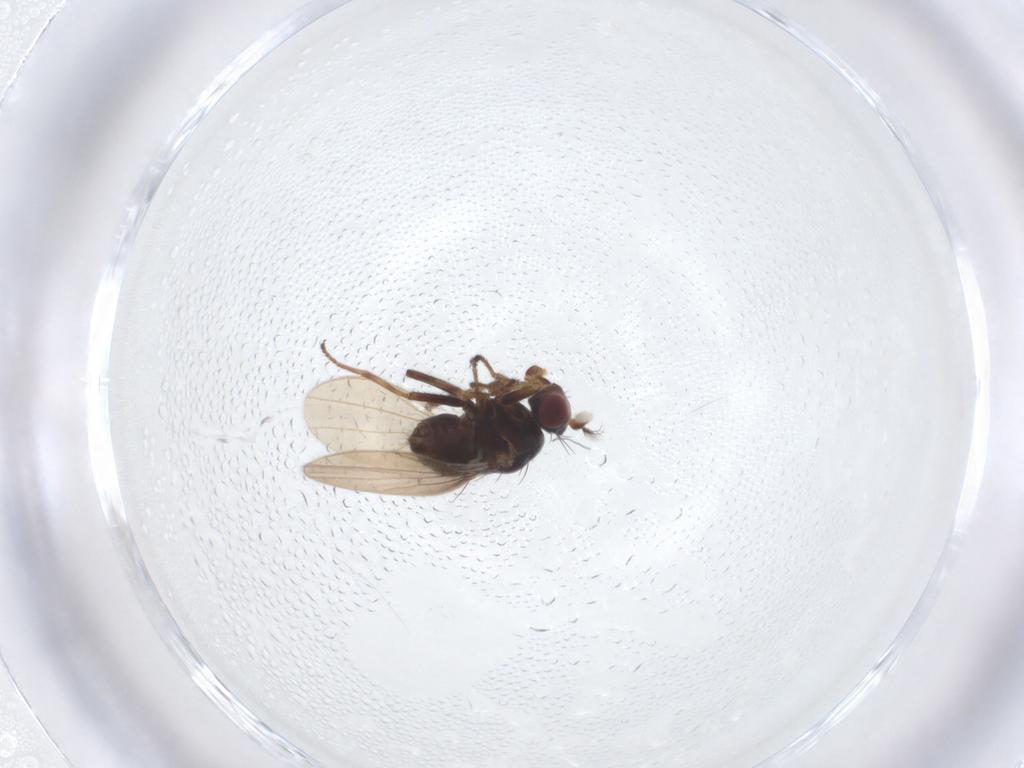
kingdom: Animalia
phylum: Arthropoda
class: Insecta
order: Diptera
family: Ephydridae
